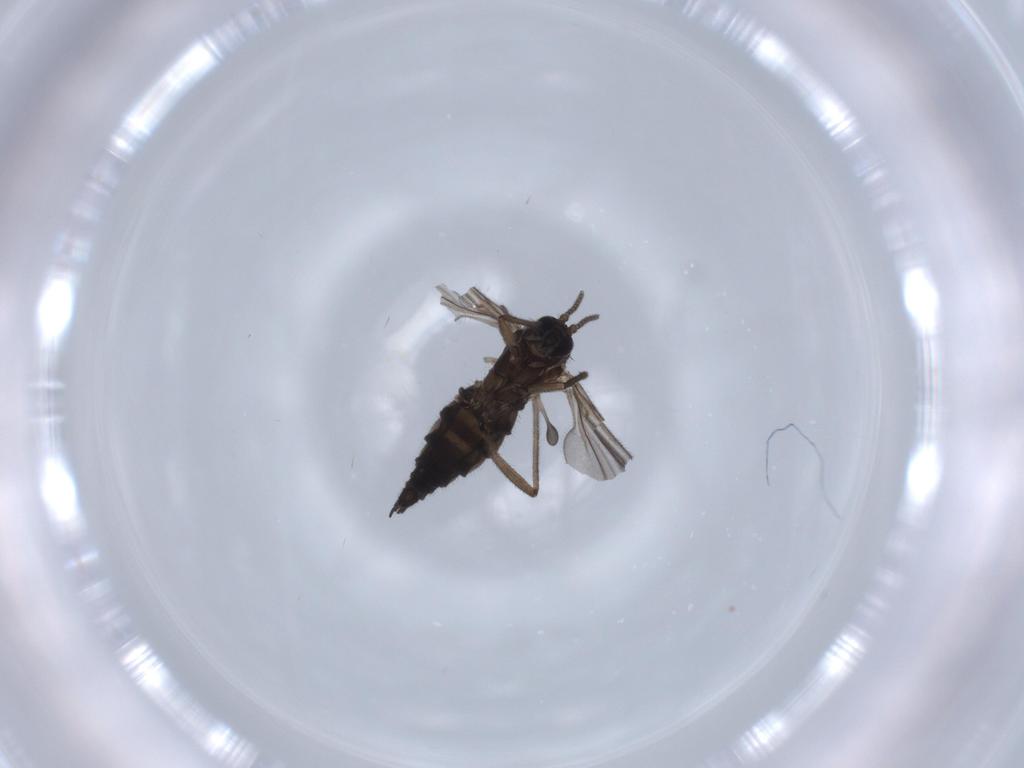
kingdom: Animalia
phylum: Arthropoda
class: Insecta
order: Diptera
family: Sciaridae
